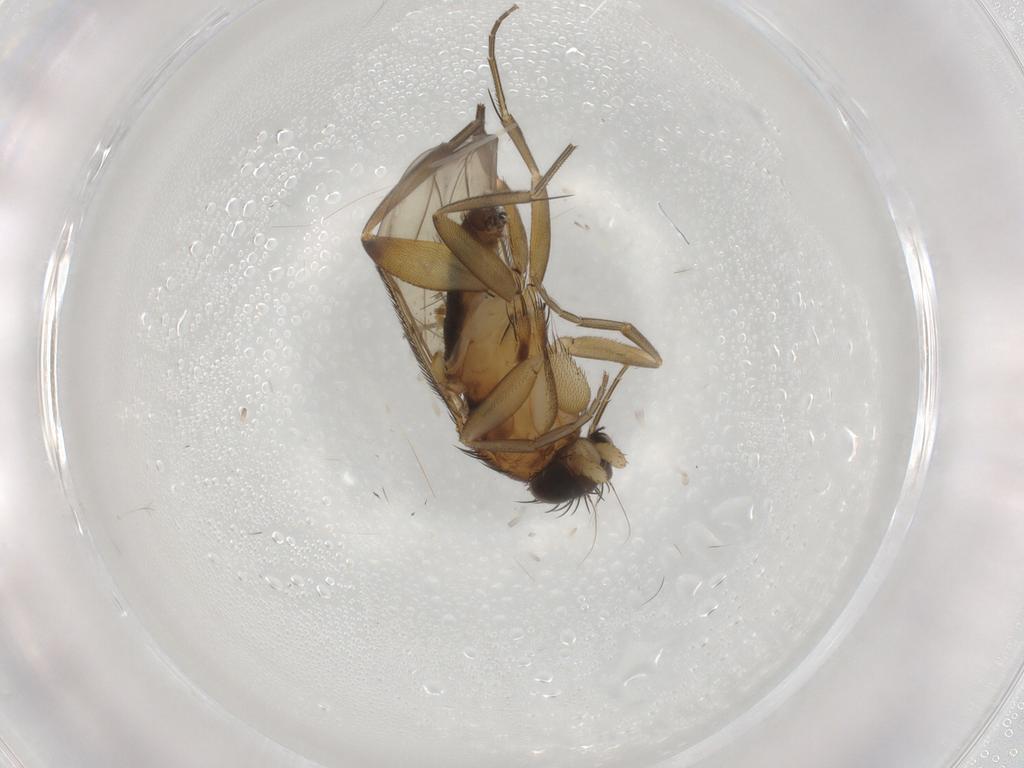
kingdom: Animalia
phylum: Arthropoda
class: Insecta
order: Diptera
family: Phoridae
